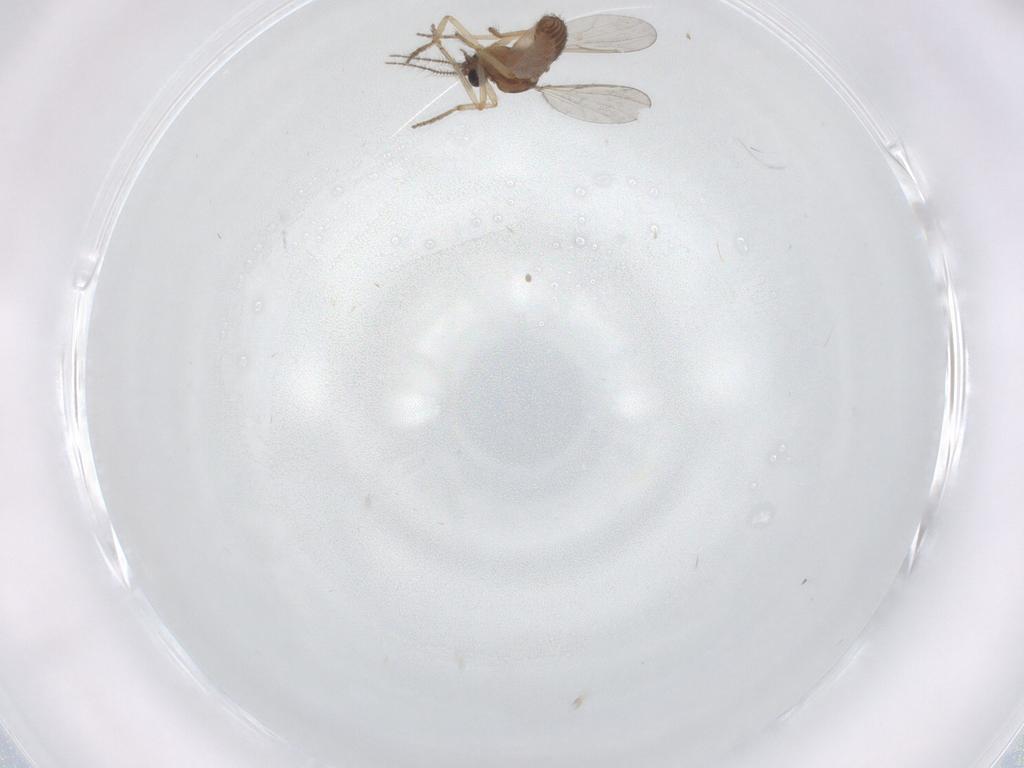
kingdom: Animalia
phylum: Arthropoda
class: Insecta
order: Diptera
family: Ceratopogonidae
